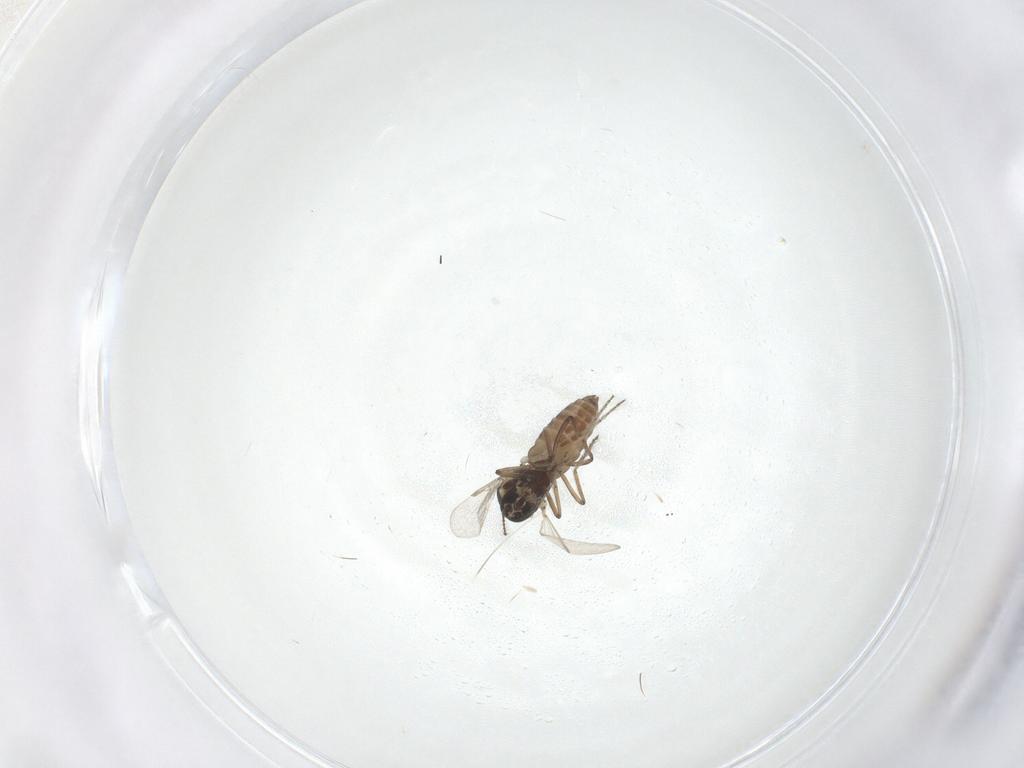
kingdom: Animalia
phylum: Arthropoda
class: Insecta
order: Diptera
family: Ceratopogonidae
